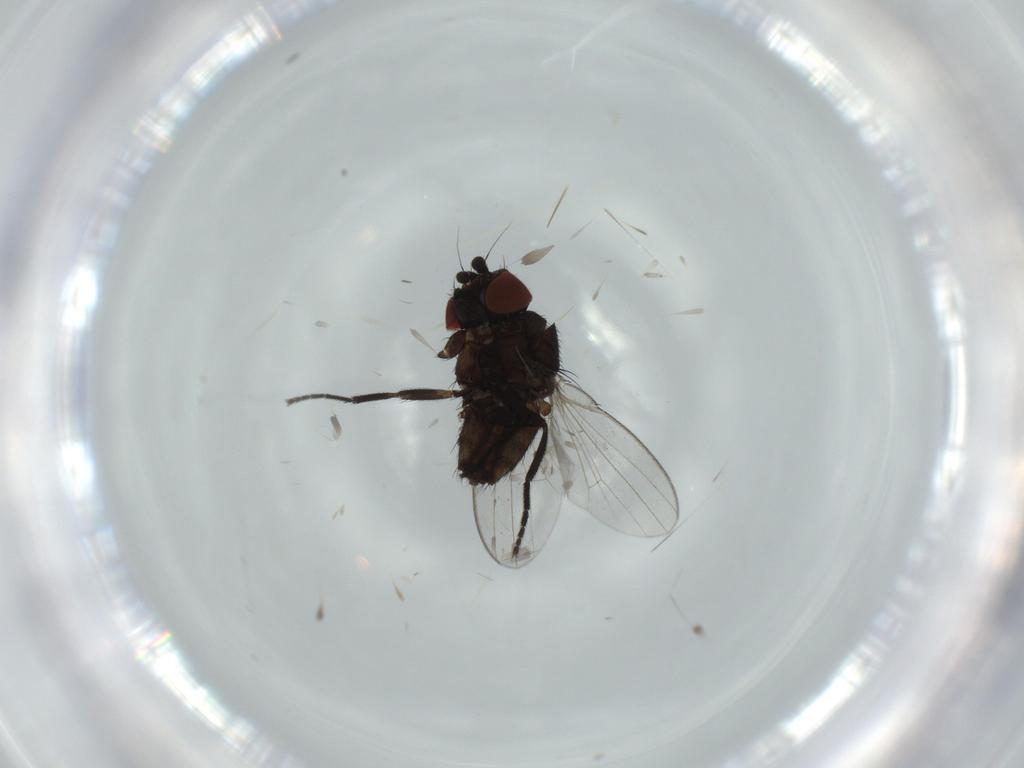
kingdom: Animalia
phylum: Arthropoda
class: Insecta
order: Diptera
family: Milichiidae
